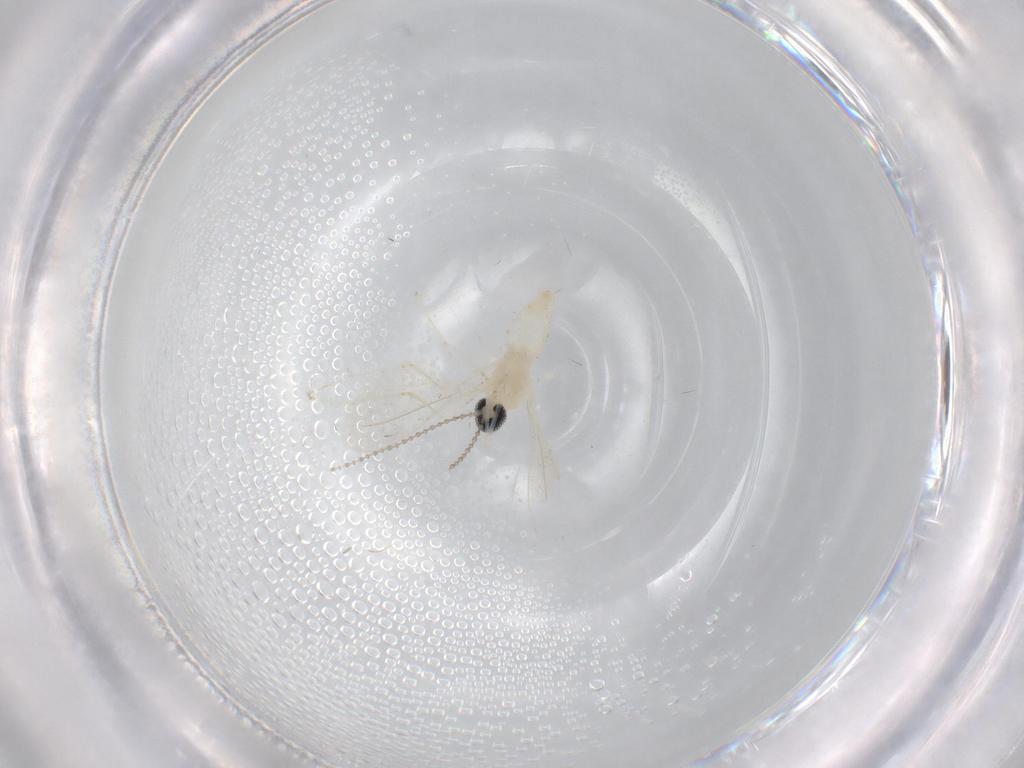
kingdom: Animalia
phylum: Arthropoda
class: Insecta
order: Diptera
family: Cecidomyiidae
